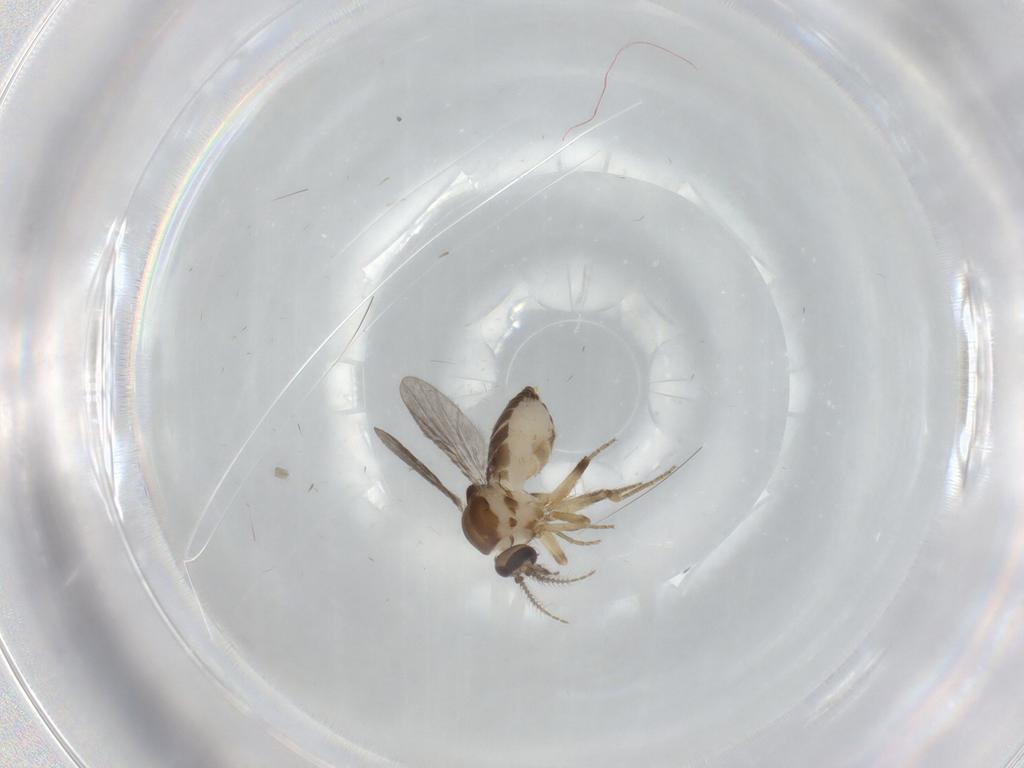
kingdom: Animalia
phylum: Arthropoda
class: Insecta
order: Diptera
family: Ceratopogonidae
